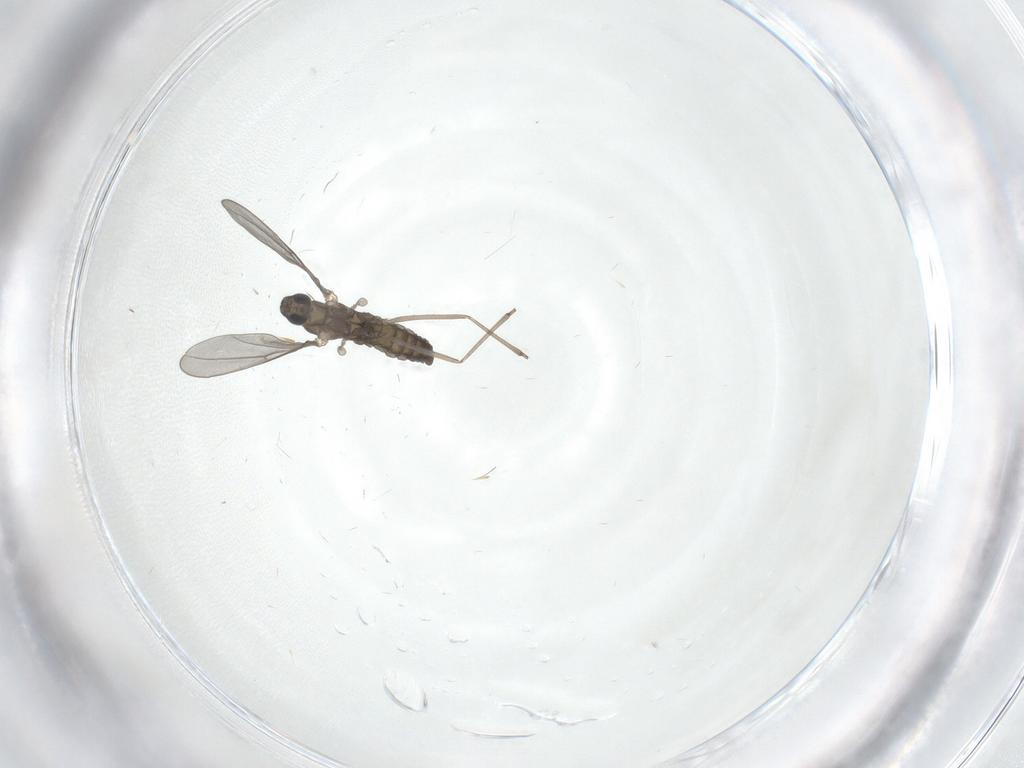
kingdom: Animalia
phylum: Arthropoda
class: Insecta
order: Diptera
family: Cecidomyiidae
